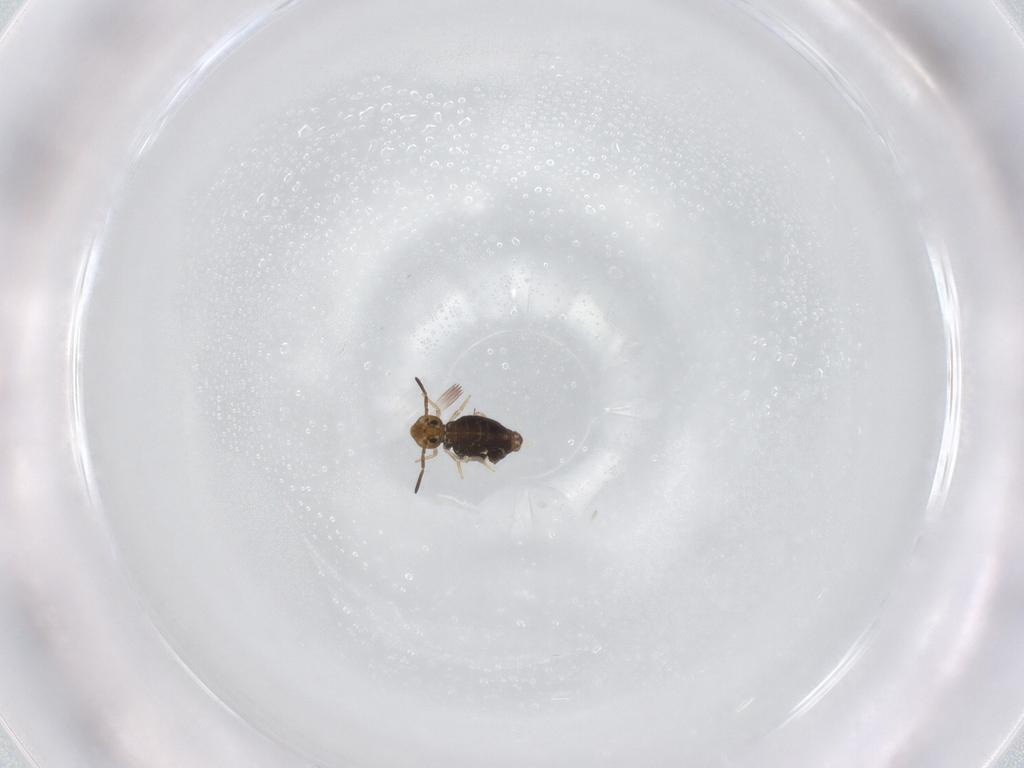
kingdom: Animalia
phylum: Arthropoda
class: Collembola
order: Symphypleona
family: Katiannidae
